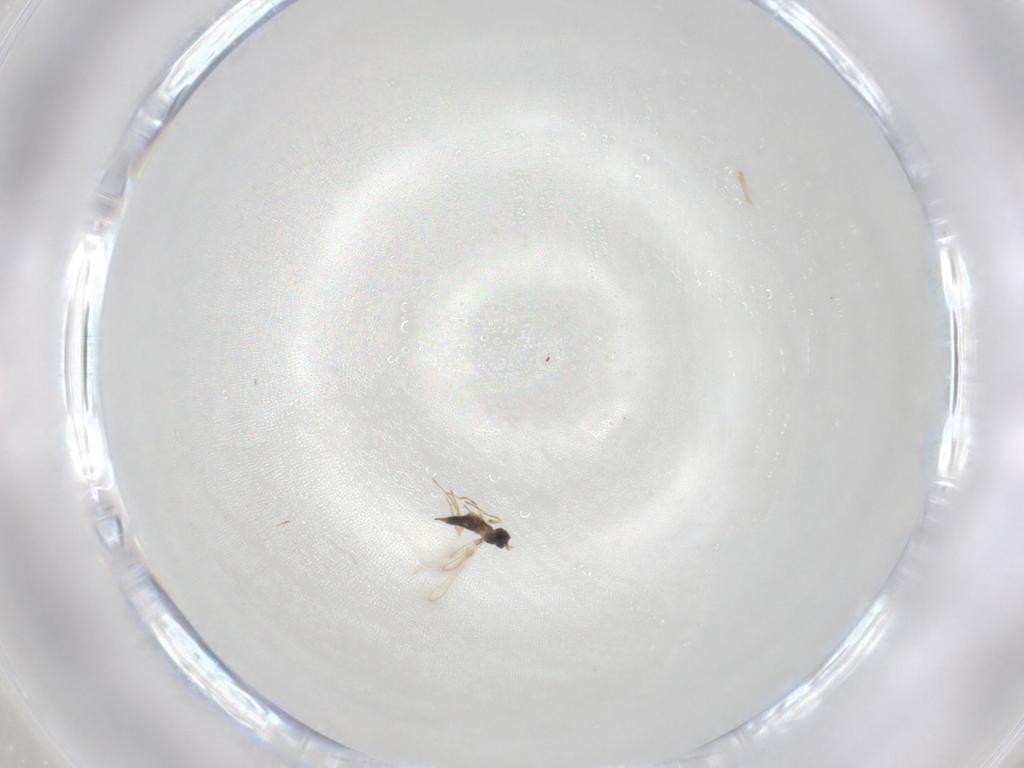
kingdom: Animalia
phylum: Arthropoda
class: Insecta
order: Hymenoptera
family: Mymaridae
